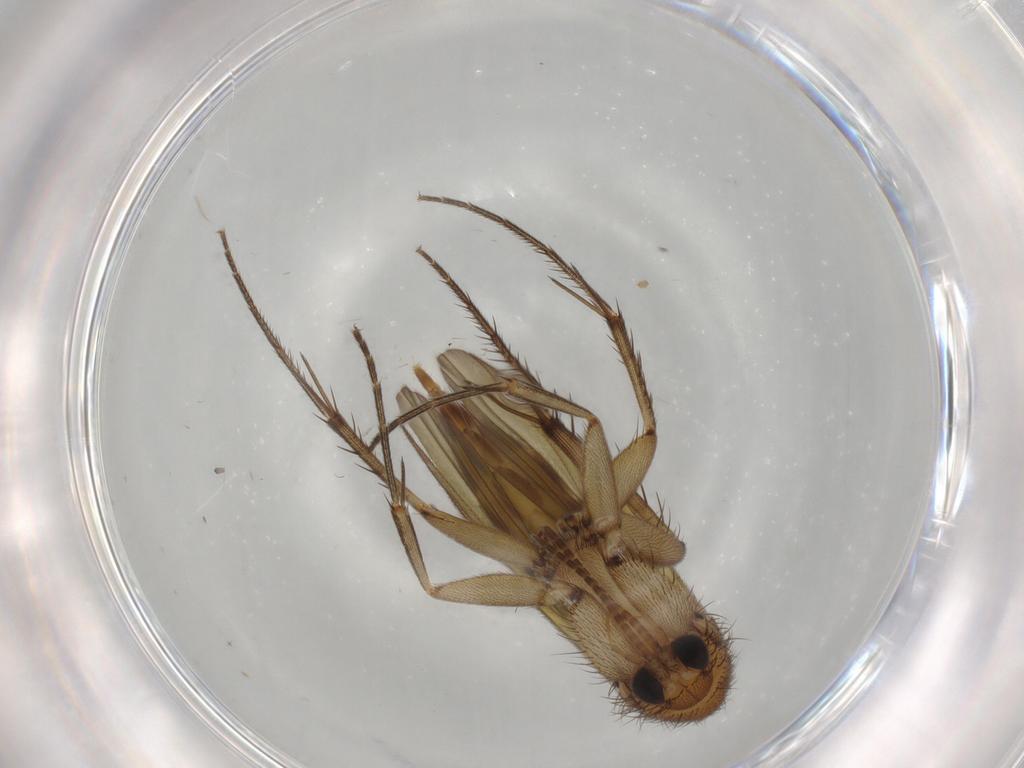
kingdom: Animalia
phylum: Arthropoda
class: Insecta
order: Diptera
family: Mycetophilidae
